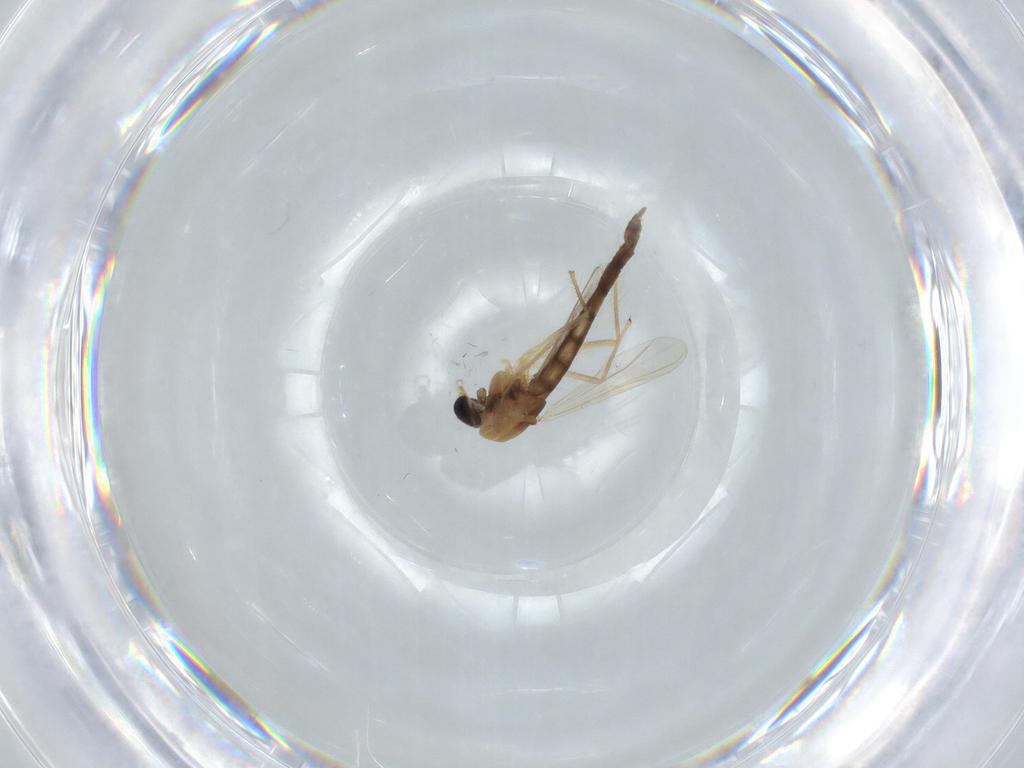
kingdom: Animalia
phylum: Arthropoda
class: Insecta
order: Diptera
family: Chironomidae
